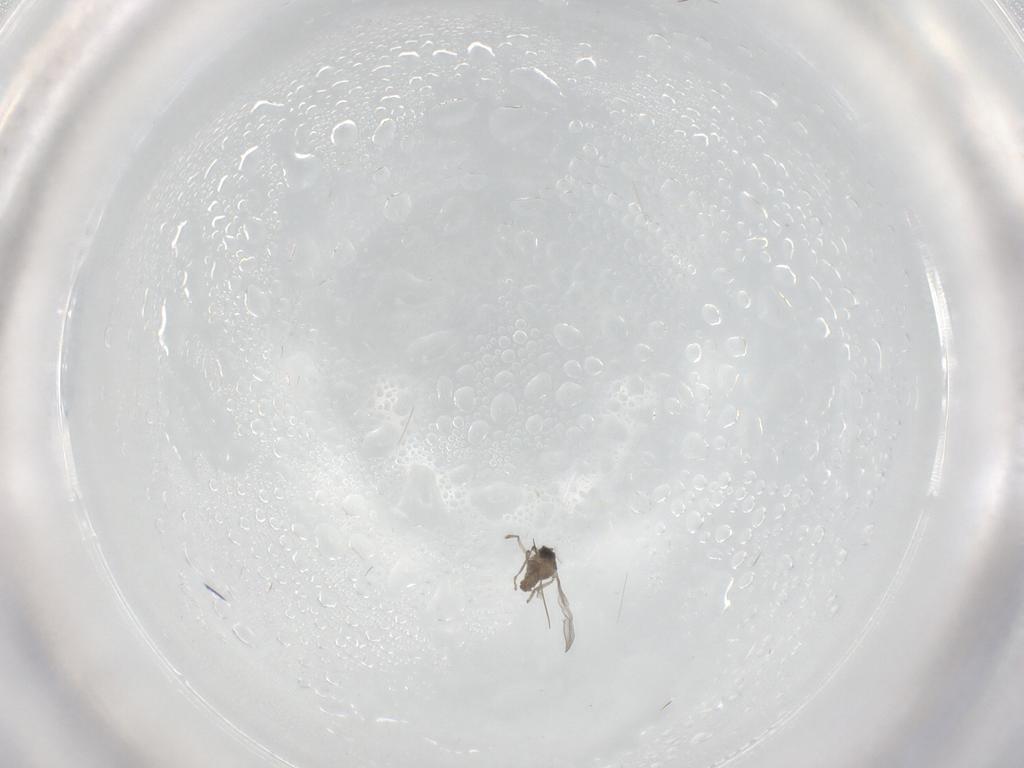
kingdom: Animalia
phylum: Arthropoda
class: Insecta
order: Diptera
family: Cecidomyiidae
